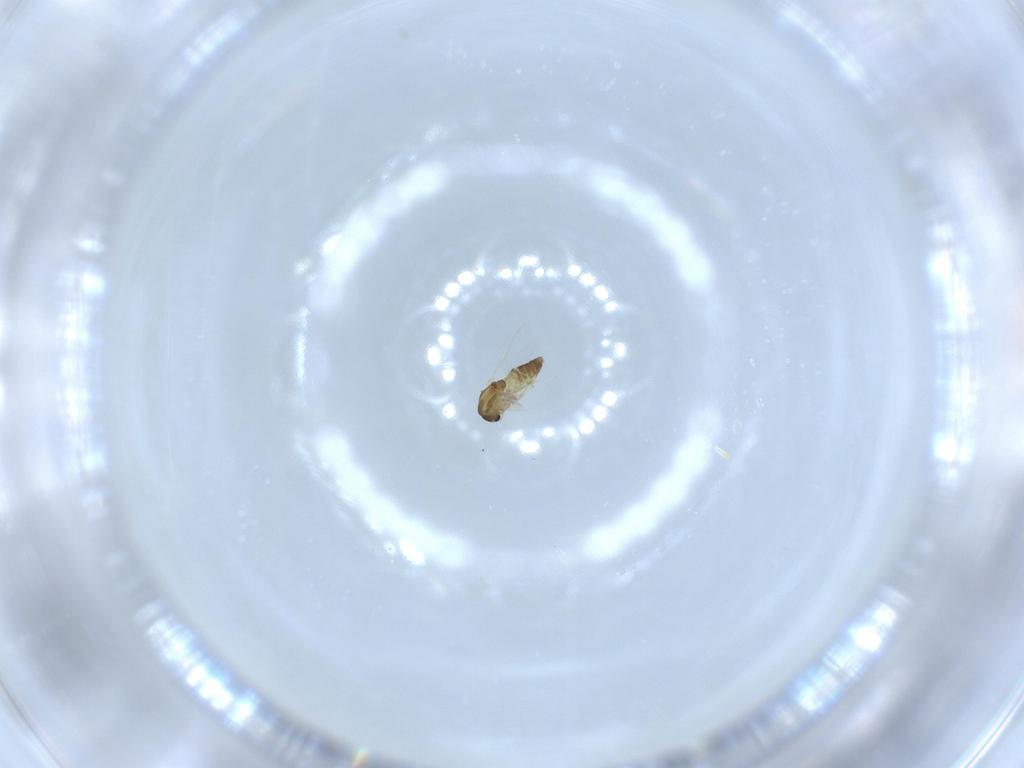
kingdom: Animalia
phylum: Arthropoda
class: Insecta
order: Diptera
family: Chironomidae
